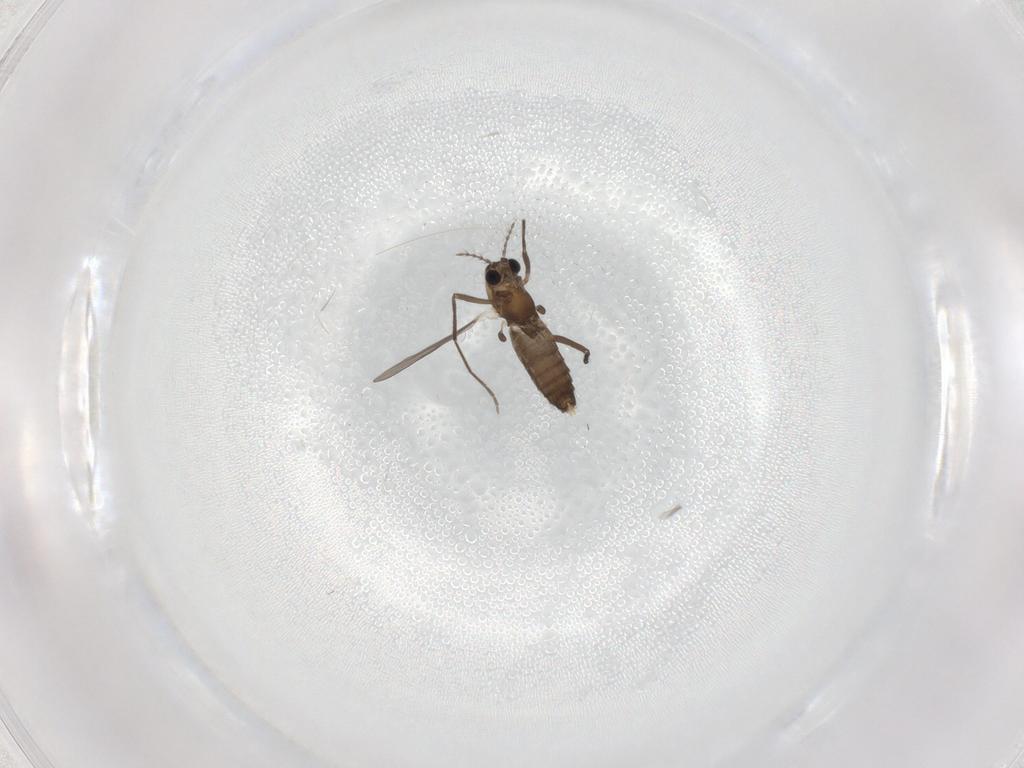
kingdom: Animalia
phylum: Arthropoda
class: Insecta
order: Diptera
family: Chironomidae
